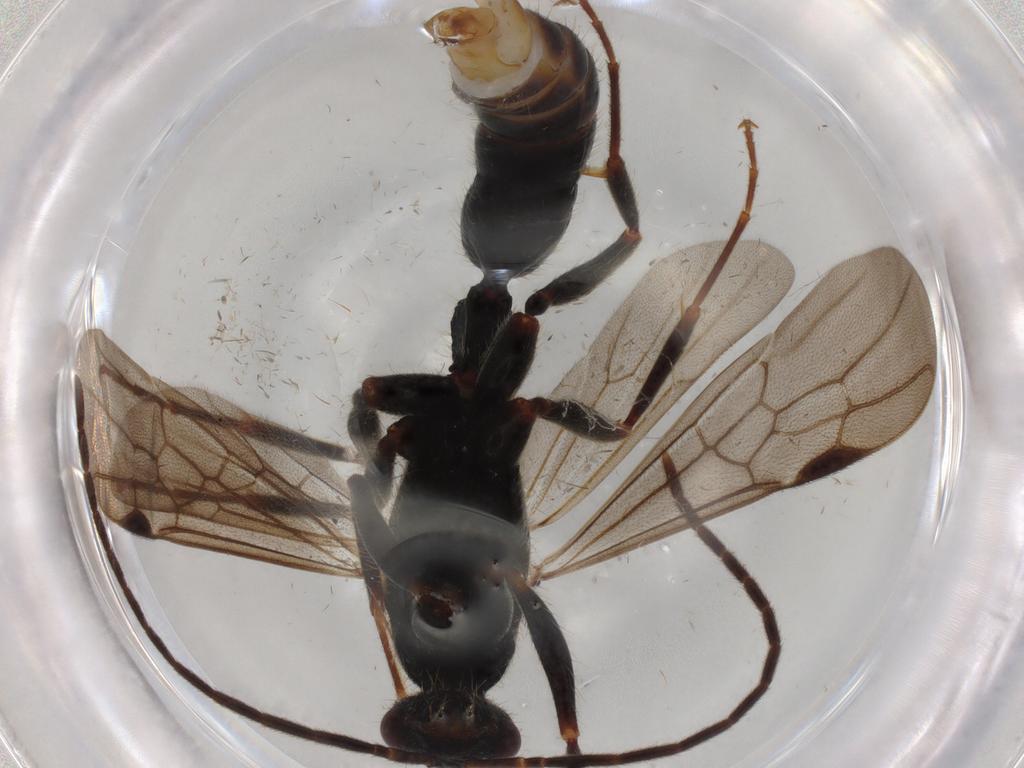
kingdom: Animalia
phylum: Arthropoda
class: Insecta
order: Hymenoptera
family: Formicidae
